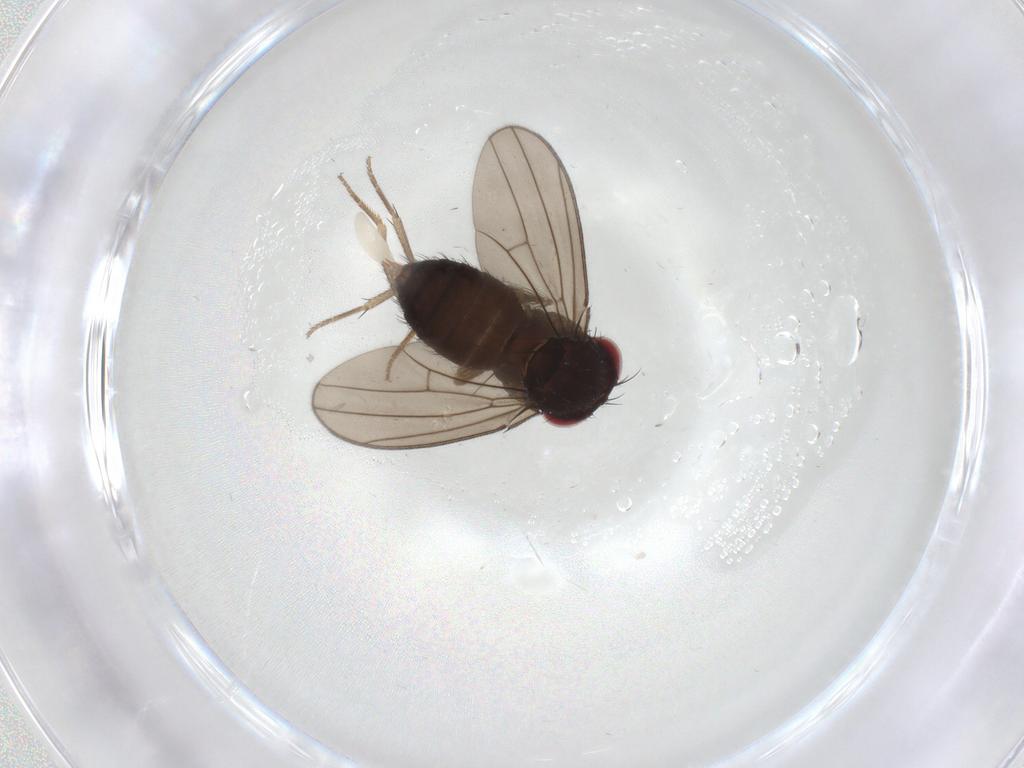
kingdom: Animalia
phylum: Arthropoda
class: Insecta
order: Diptera
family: Drosophilidae
